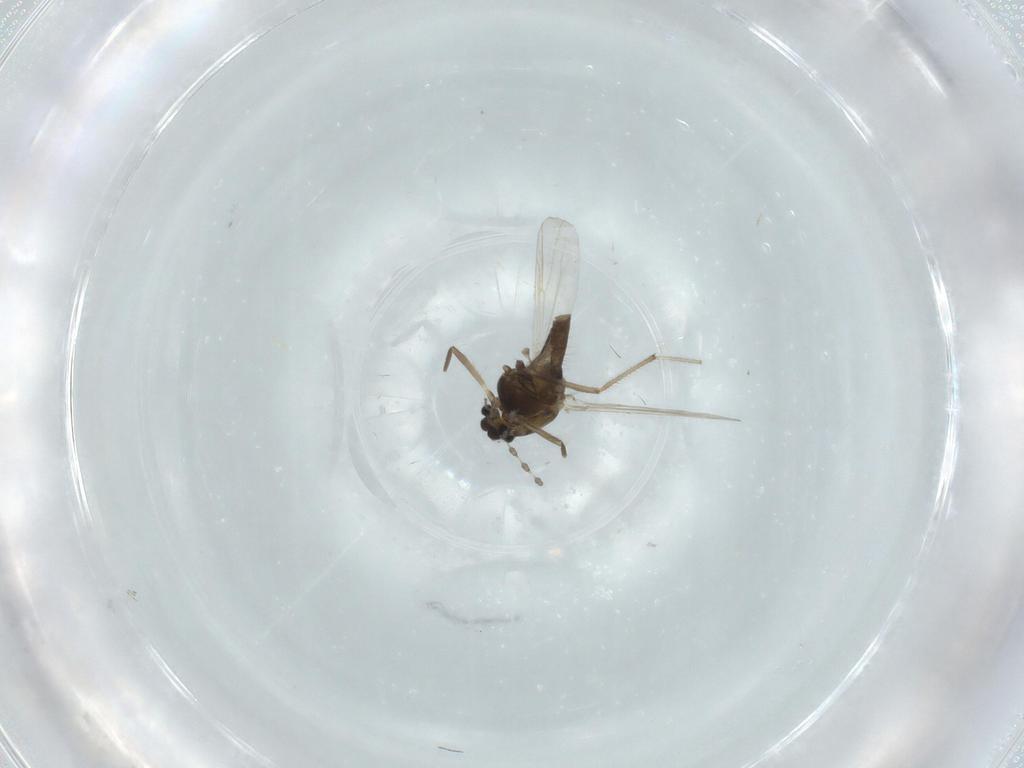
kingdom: Animalia
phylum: Arthropoda
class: Insecta
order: Diptera
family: Chironomidae
